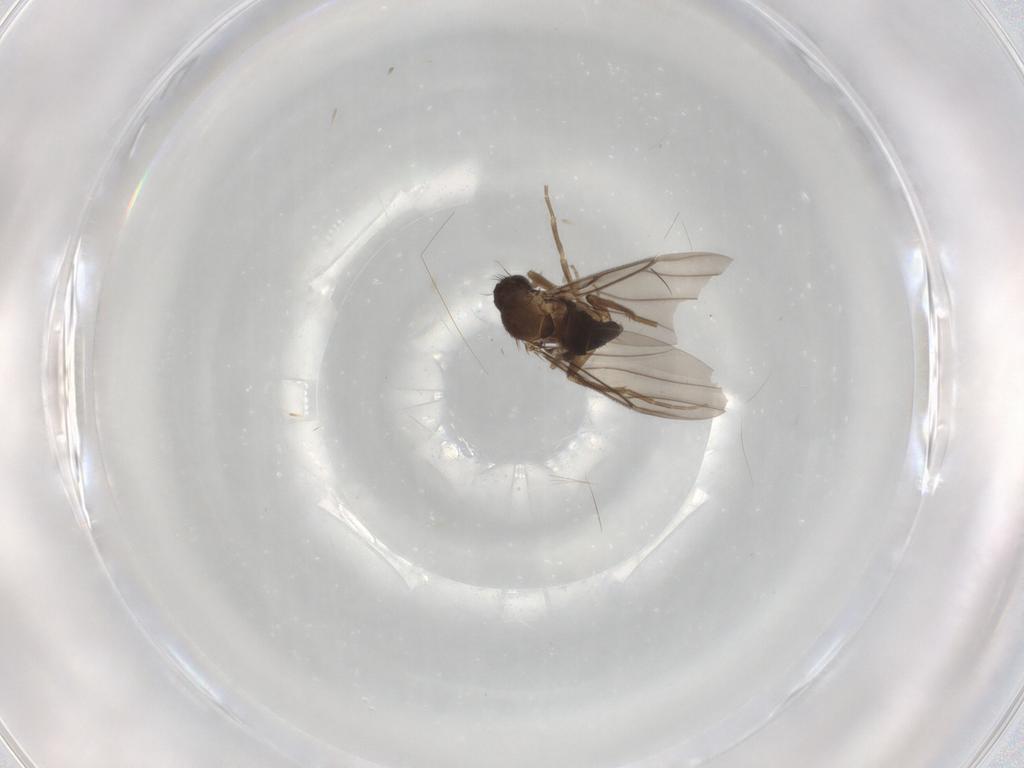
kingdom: Animalia
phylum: Arthropoda
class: Insecta
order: Diptera
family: Phoridae
